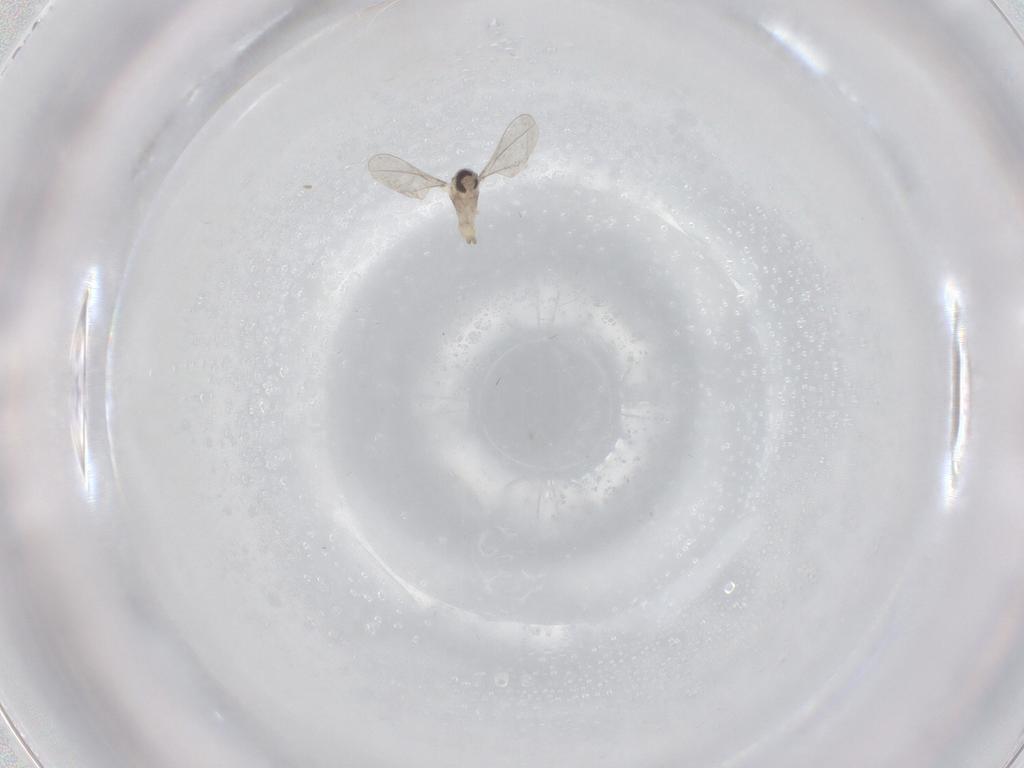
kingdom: Animalia
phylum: Arthropoda
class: Insecta
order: Diptera
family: Cecidomyiidae
